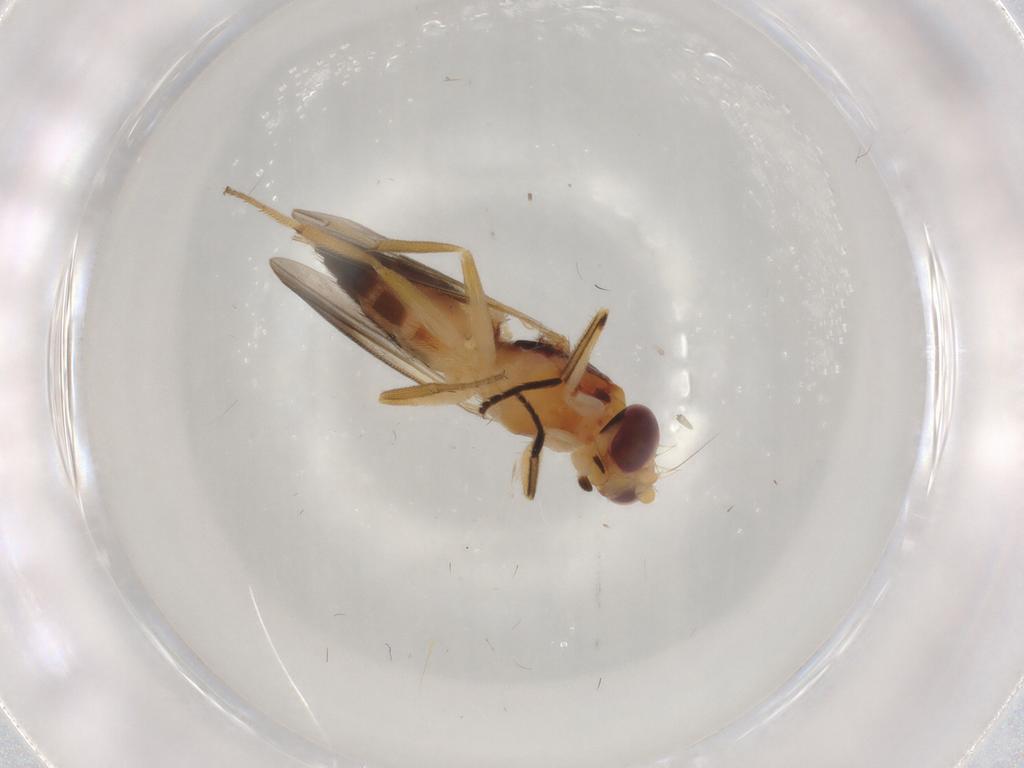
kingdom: Animalia
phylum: Arthropoda
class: Insecta
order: Diptera
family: Clusiidae
